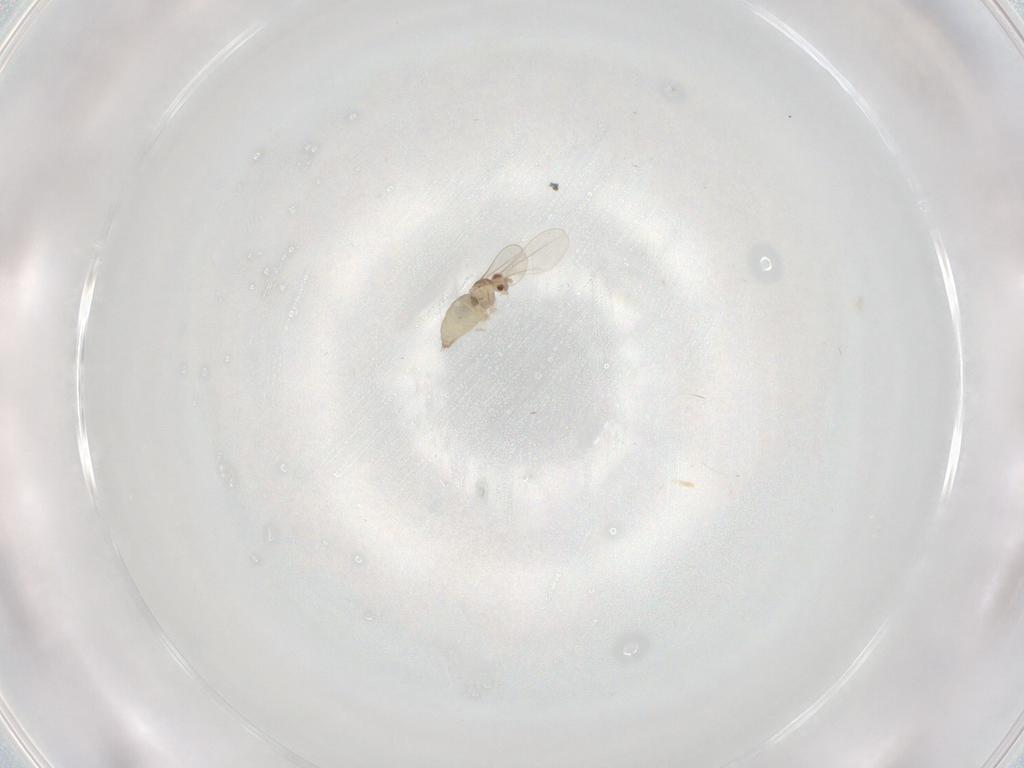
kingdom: Animalia
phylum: Arthropoda
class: Insecta
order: Diptera
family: Cecidomyiidae
